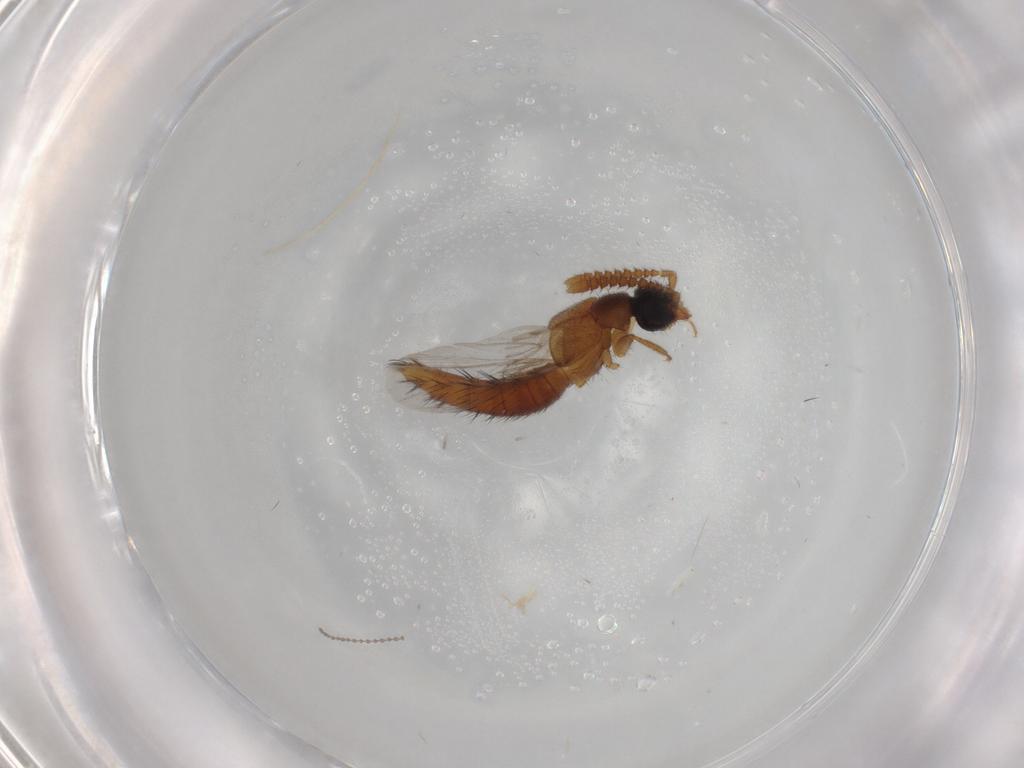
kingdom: Animalia
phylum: Arthropoda
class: Insecta
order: Coleoptera
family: Staphylinidae
